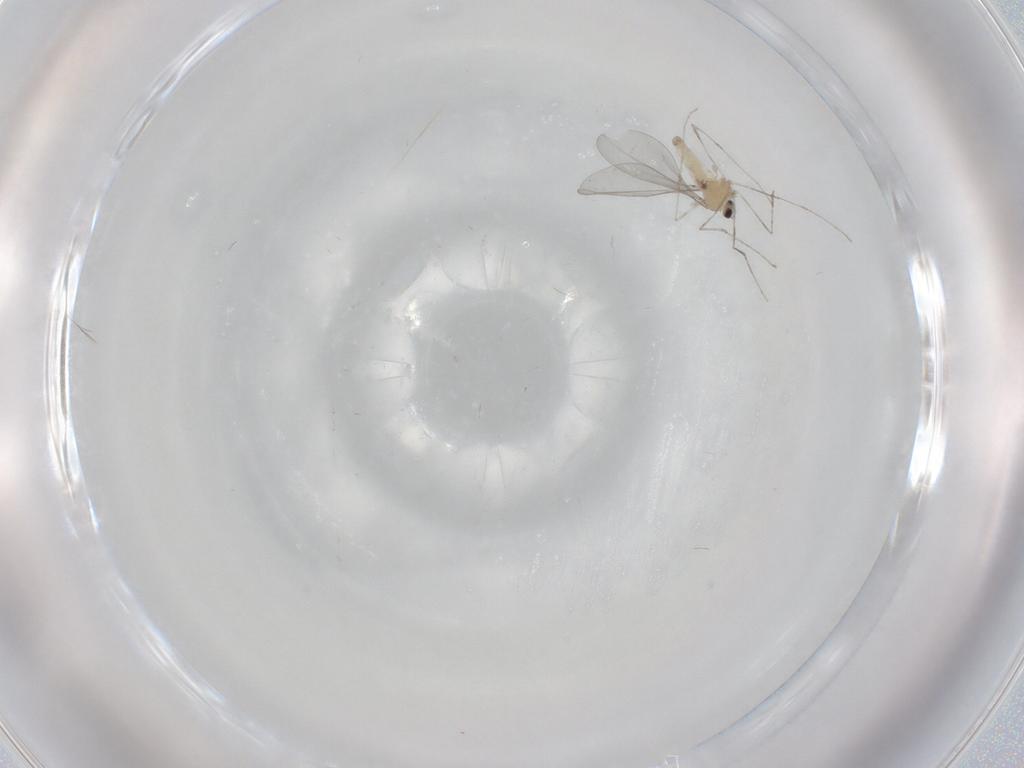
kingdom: Animalia
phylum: Arthropoda
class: Insecta
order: Diptera
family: Cecidomyiidae
